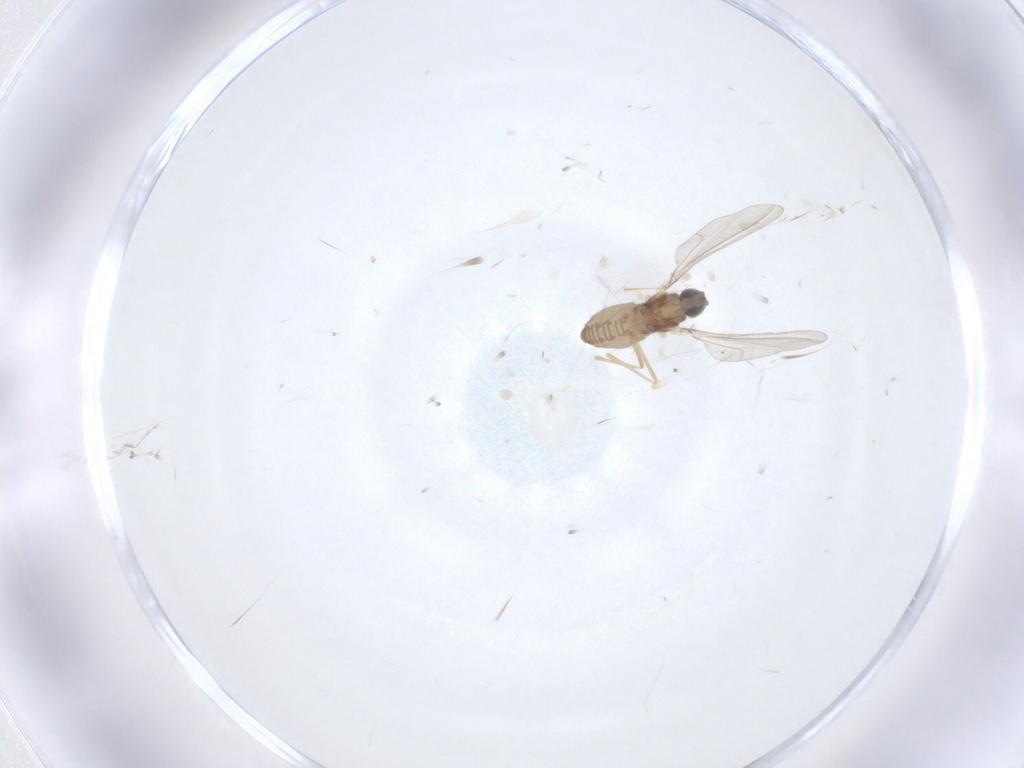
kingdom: Animalia
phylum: Arthropoda
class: Insecta
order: Diptera
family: Cecidomyiidae
